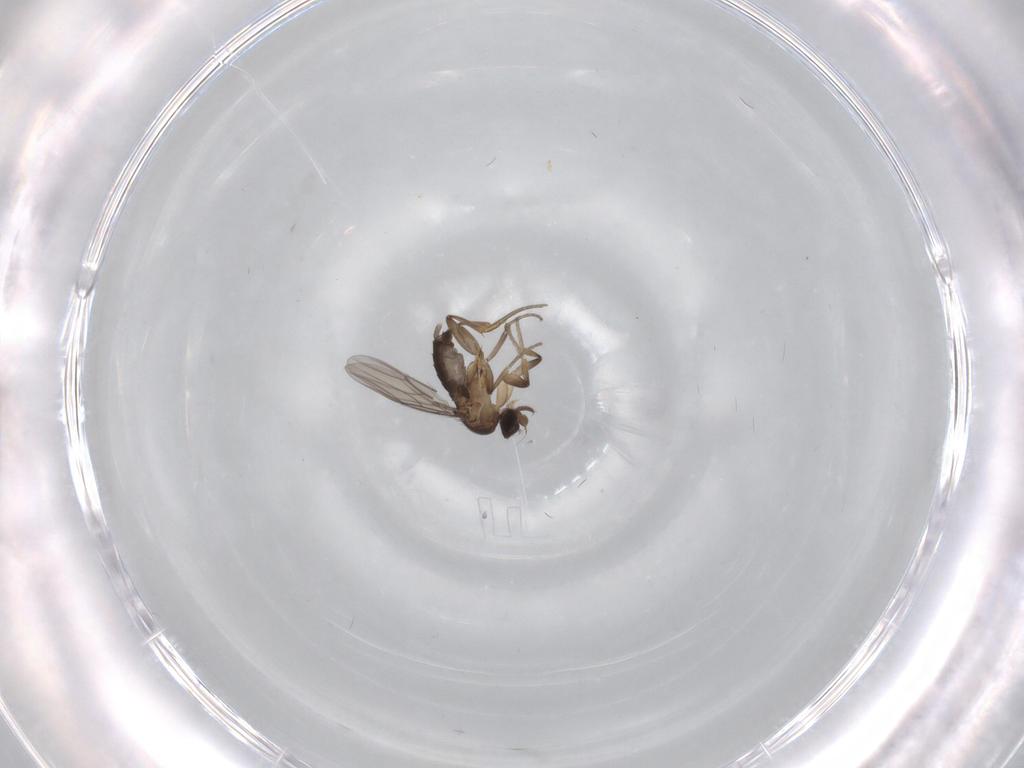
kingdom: Animalia
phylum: Arthropoda
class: Insecta
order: Diptera
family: Phoridae
